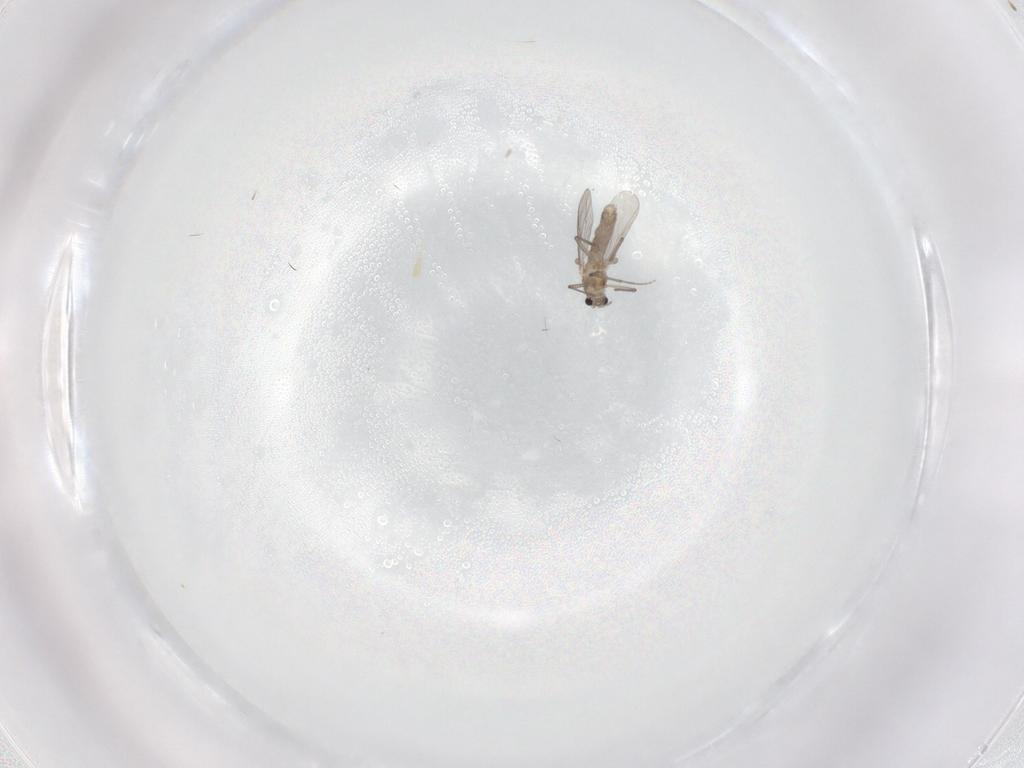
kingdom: Animalia
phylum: Arthropoda
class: Insecta
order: Diptera
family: Chironomidae
